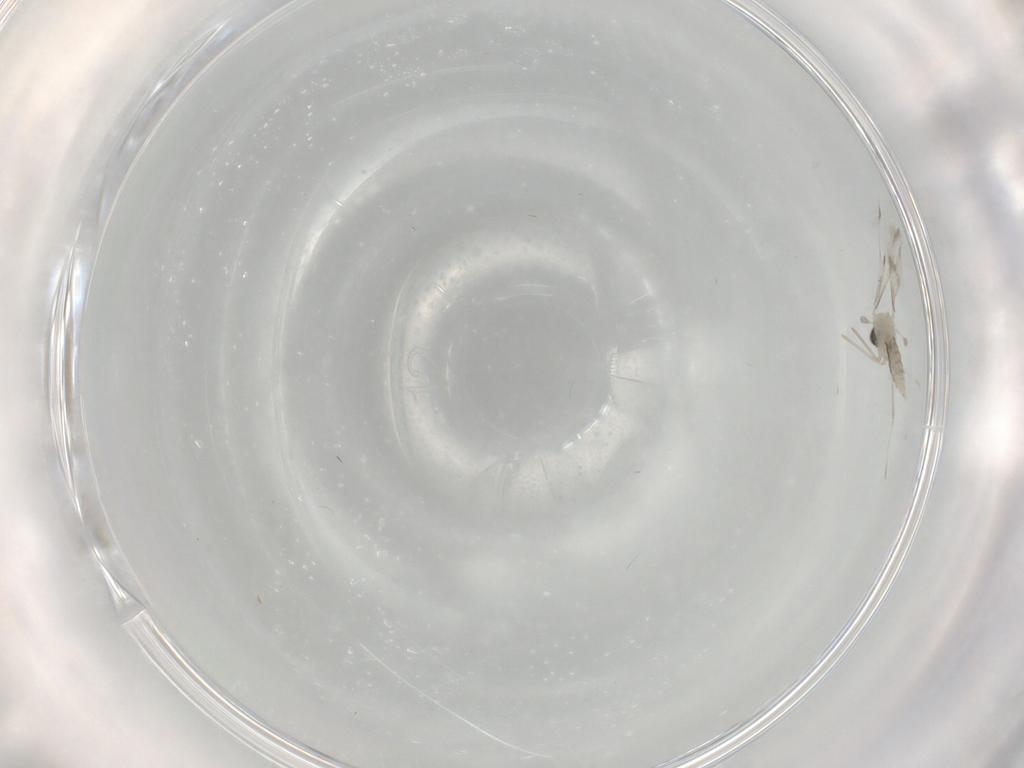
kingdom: Animalia
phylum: Arthropoda
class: Insecta
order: Diptera
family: Cecidomyiidae
